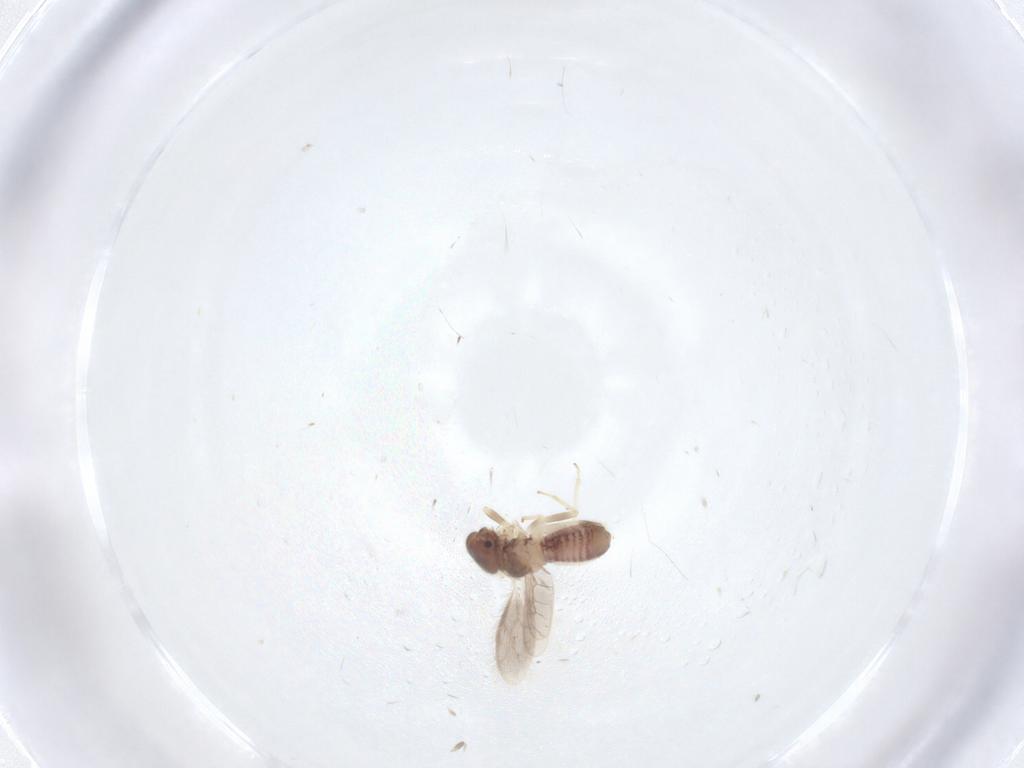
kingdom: Animalia
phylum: Arthropoda
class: Insecta
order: Psocodea
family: Archipsocidae
